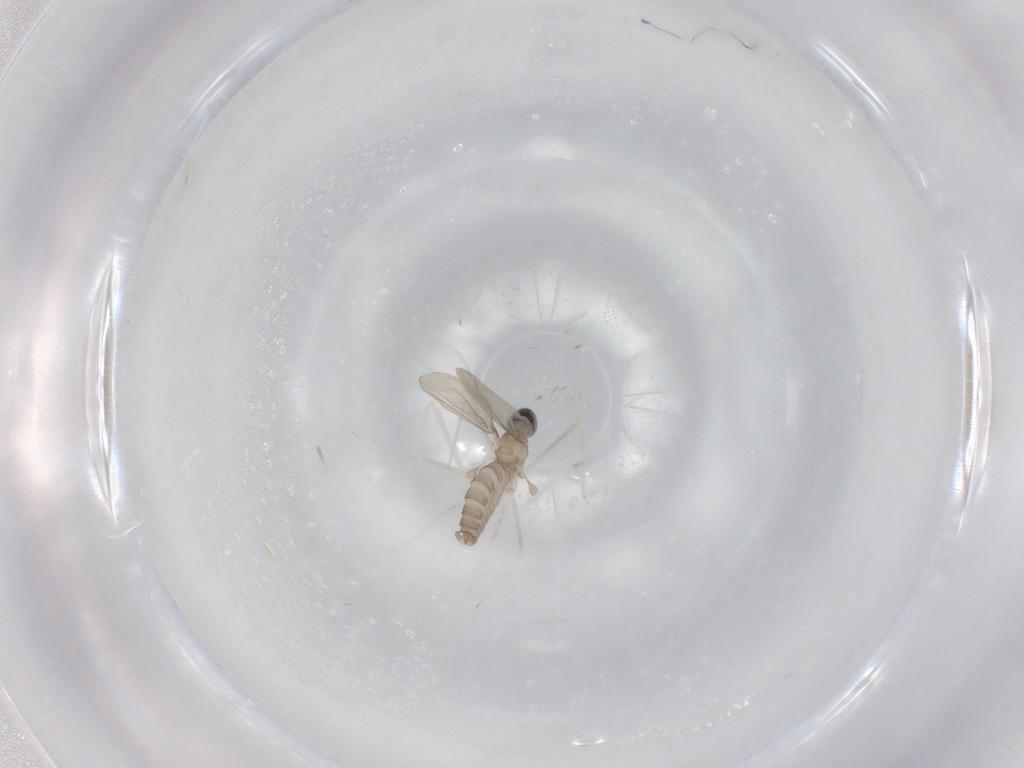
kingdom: Animalia
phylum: Arthropoda
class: Insecta
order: Diptera
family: Cecidomyiidae
